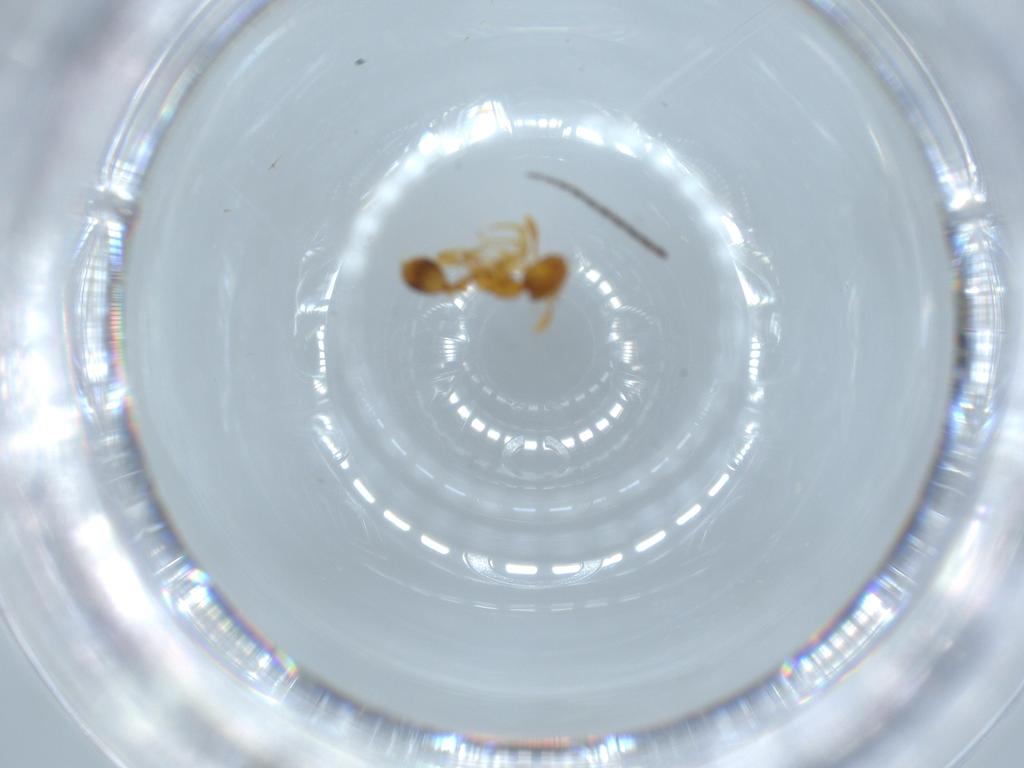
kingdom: Animalia
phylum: Arthropoda
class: Insecta
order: Hymenoptera
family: Formicidae
